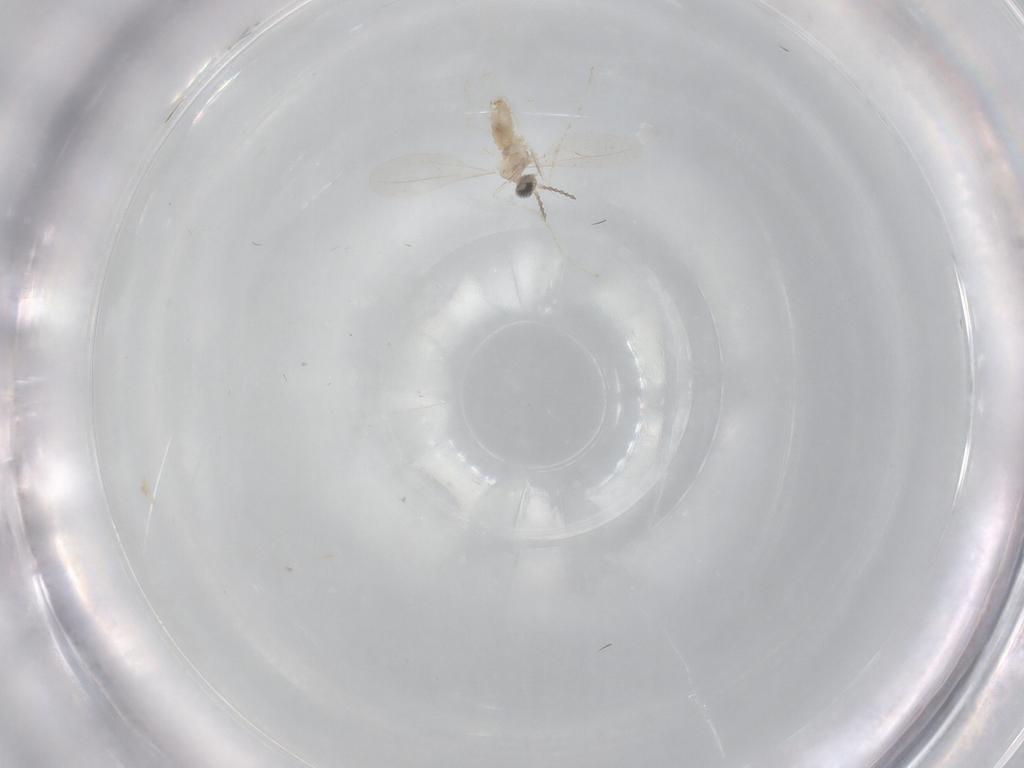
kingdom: Animalia
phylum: Arthropoda
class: Insecta
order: Diptera
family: Cecidomyiidae
